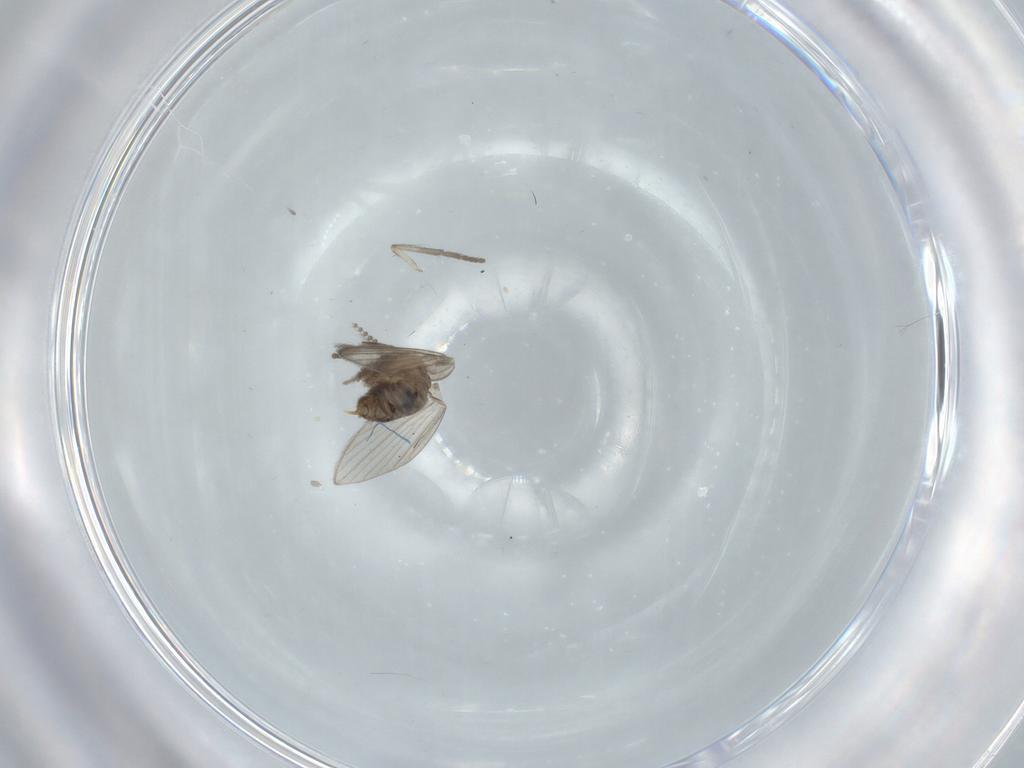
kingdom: Animalia
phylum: Arthropoda
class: Insecta
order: Diptera
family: Psychodidae
